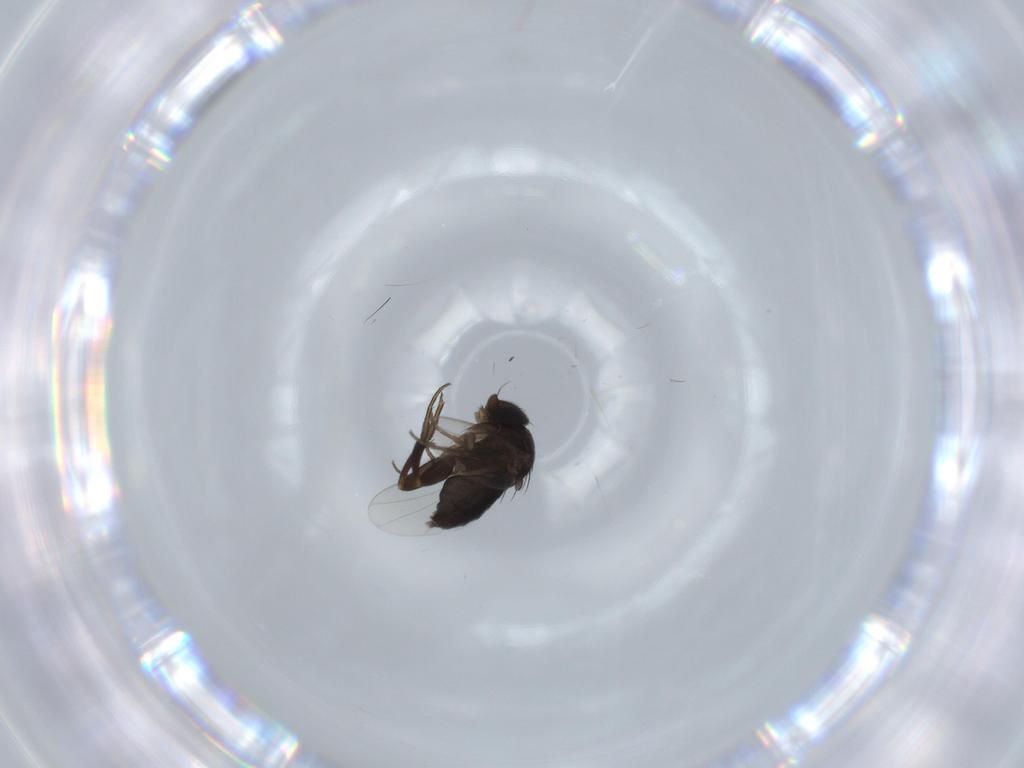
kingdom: Animalia
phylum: Arthropoda
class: Insecta
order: Diptera
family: Phoridae
